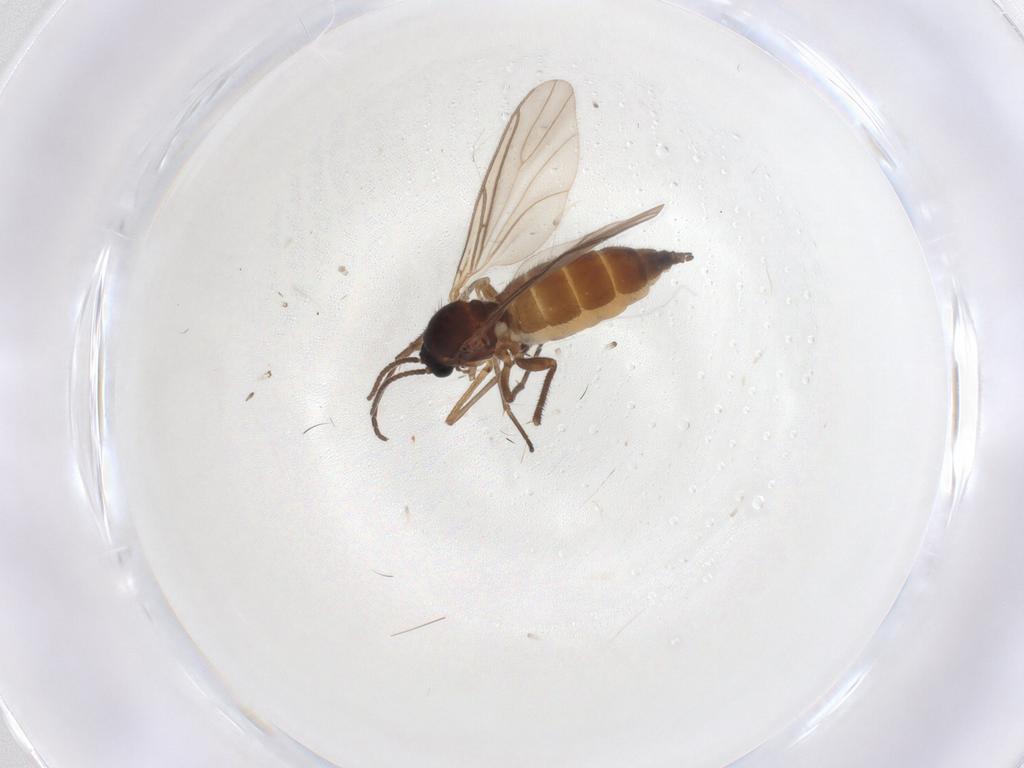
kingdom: Animalia
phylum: Arthropoda
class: Insecta
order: Diptera
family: Sciaridae
